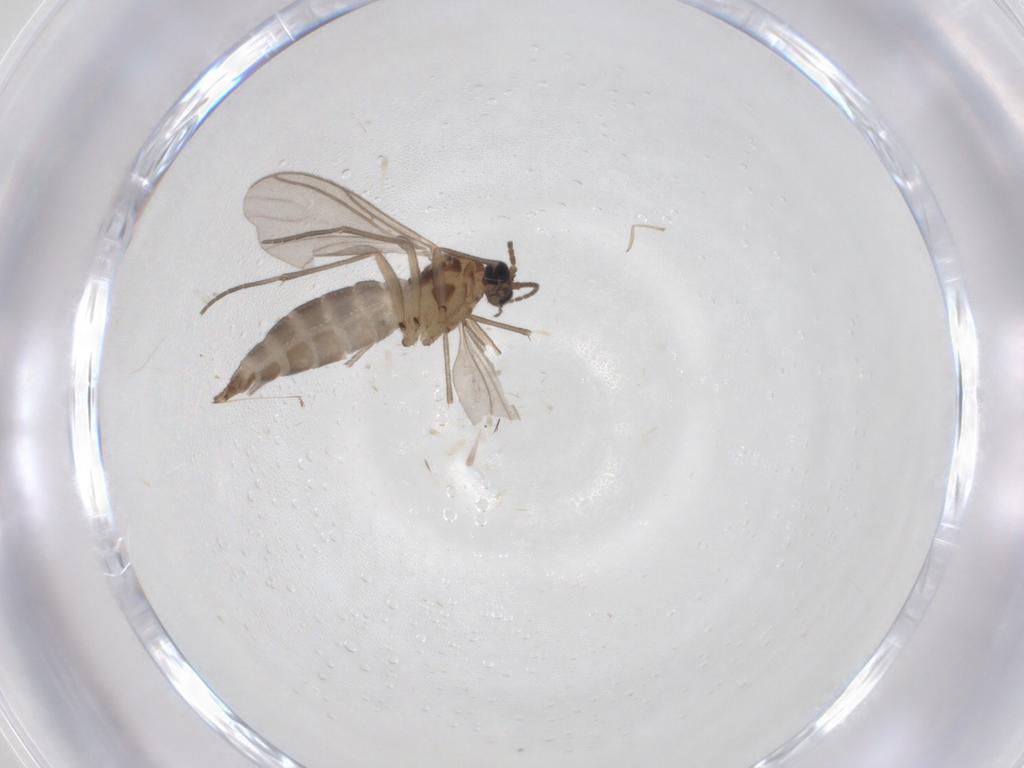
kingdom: Animalia
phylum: Arthropoda
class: Insecta
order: Diptera
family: Sciaridae
